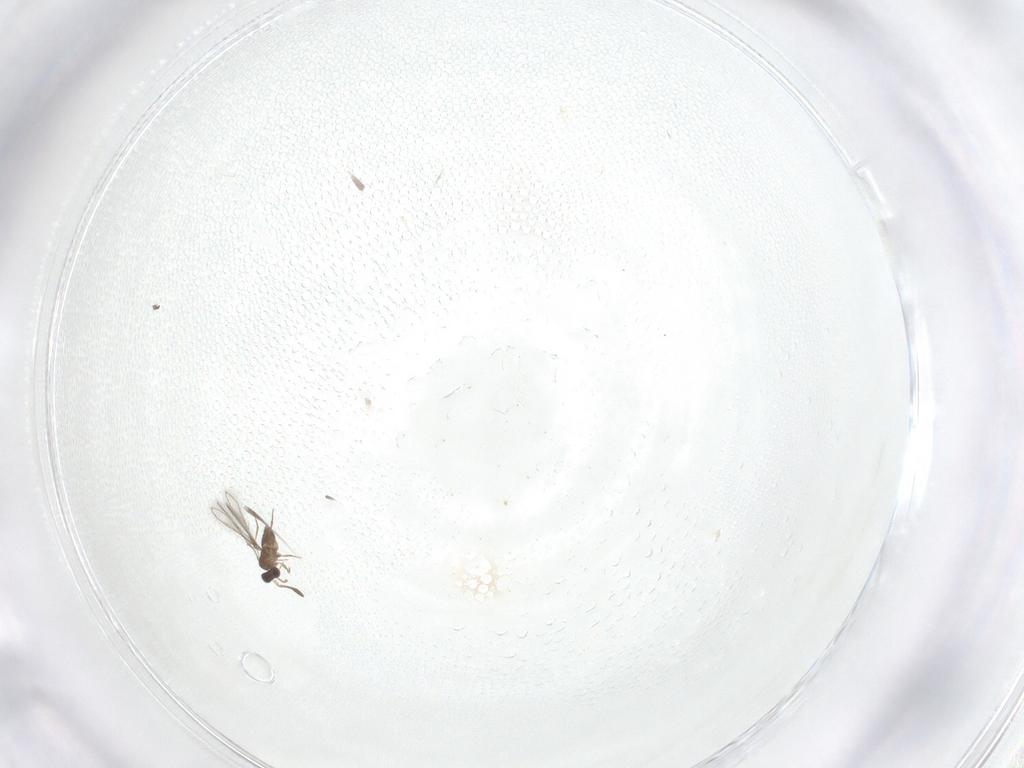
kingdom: Animalia
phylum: Arthropoda
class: Insecta
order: Hymenoptera
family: Mymaridae
